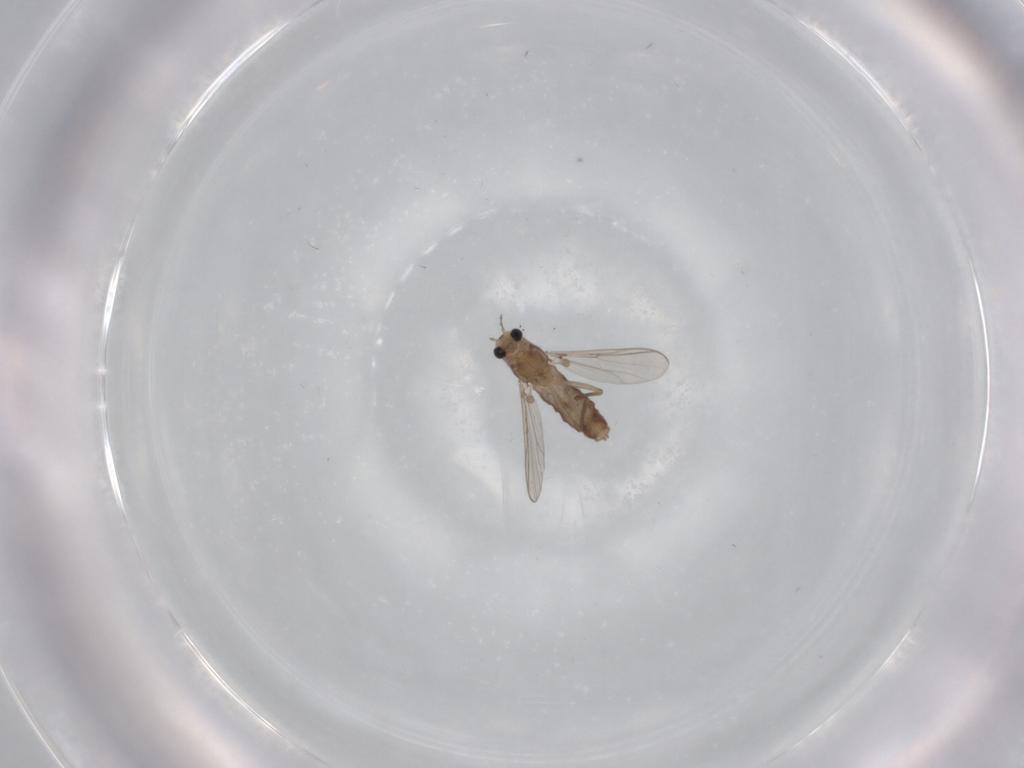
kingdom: Animalia
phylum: Arthropoda
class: Insecta
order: Diptera
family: Chironomidae
